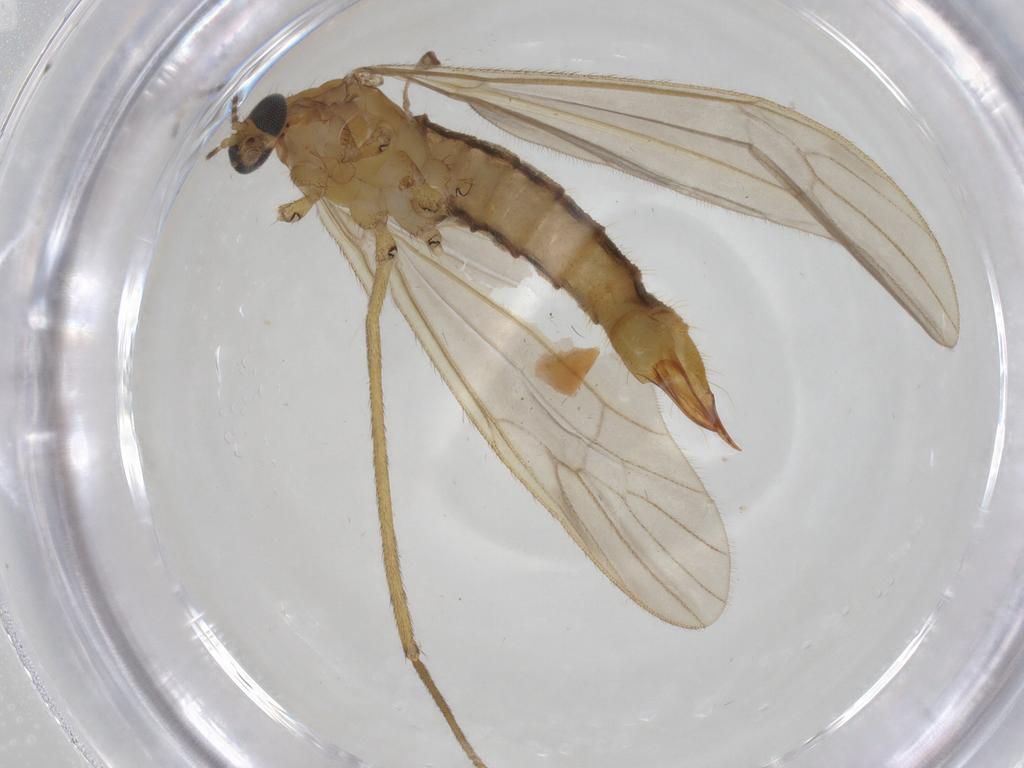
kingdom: Animalia
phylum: Arthropoda
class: Insecta
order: Diptera
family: Limoniidae
